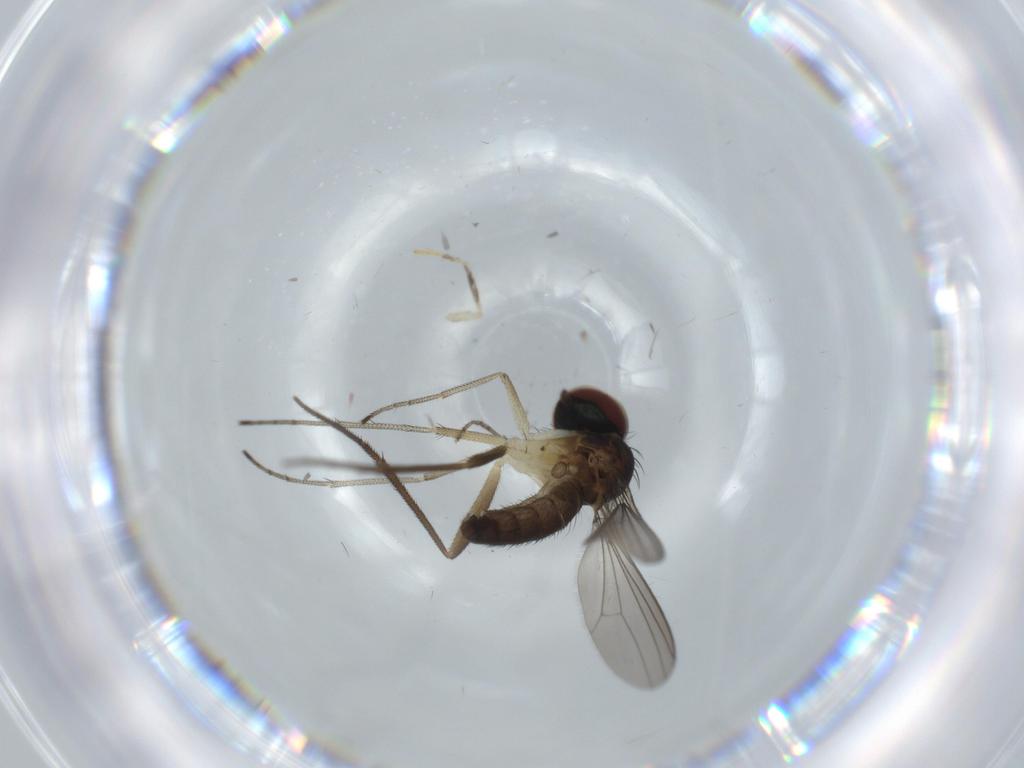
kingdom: Animalia
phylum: Arthropoda
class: Insecta
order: Diptera
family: Dolichopodidae
